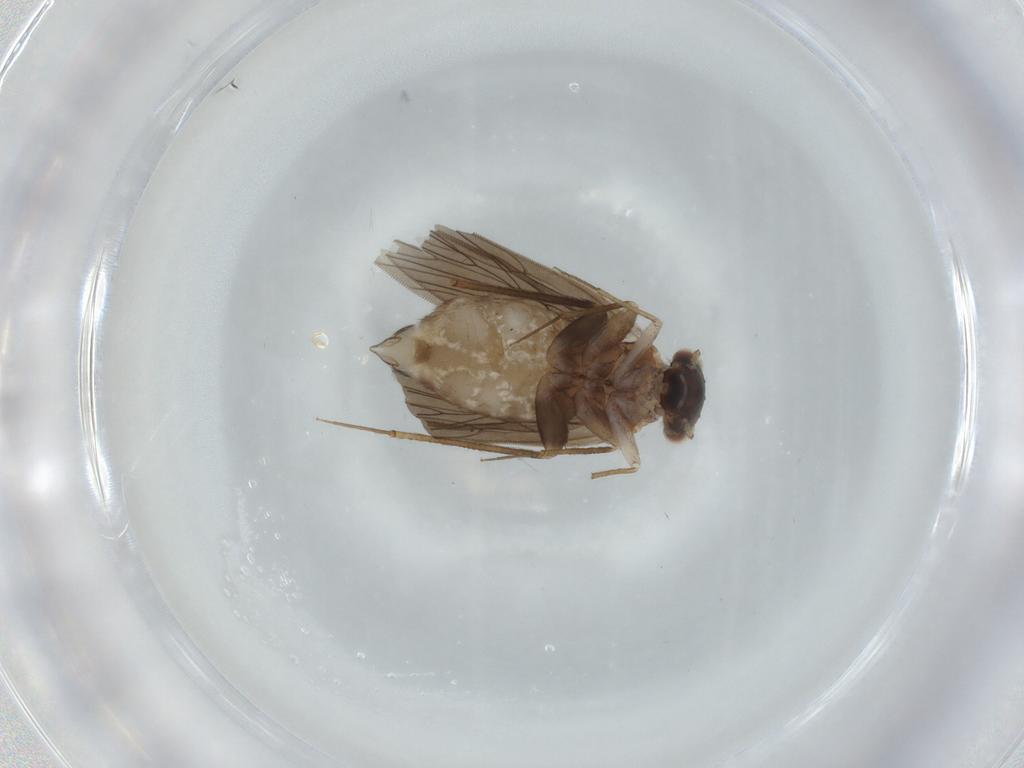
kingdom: Animalia
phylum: Arthropoda
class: Insecta
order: Psocodea
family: Lepidopsocidae
